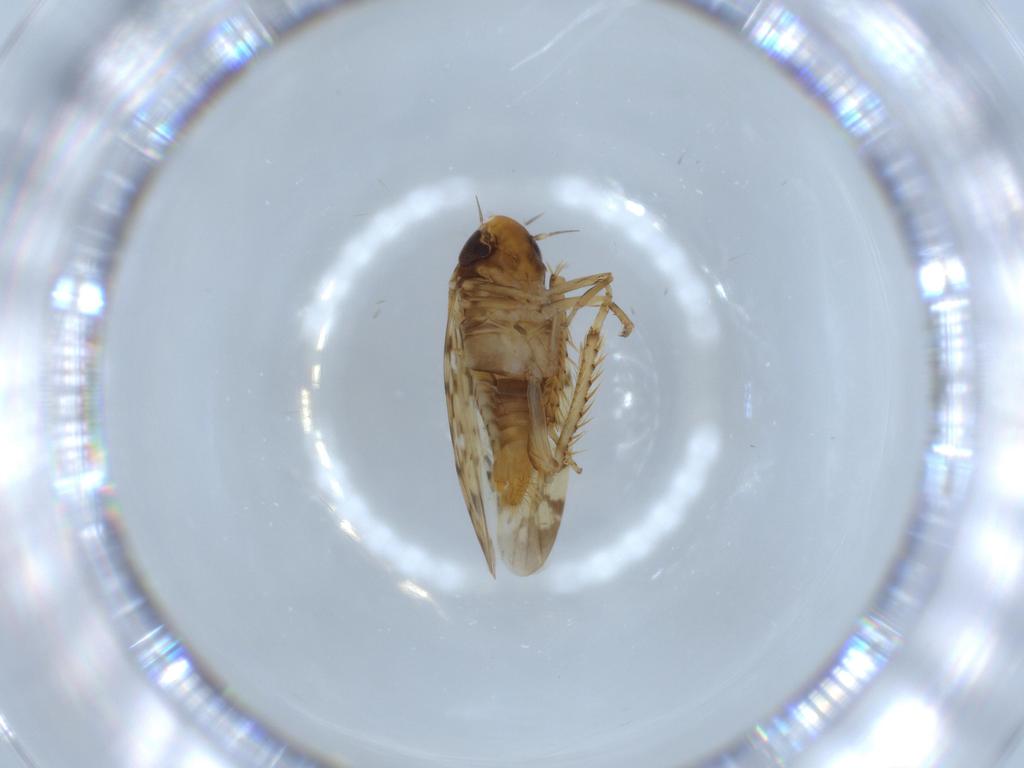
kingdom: Animalia
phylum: Arthropoda
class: Insecta
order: Hemiptera
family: Cicadellidae
